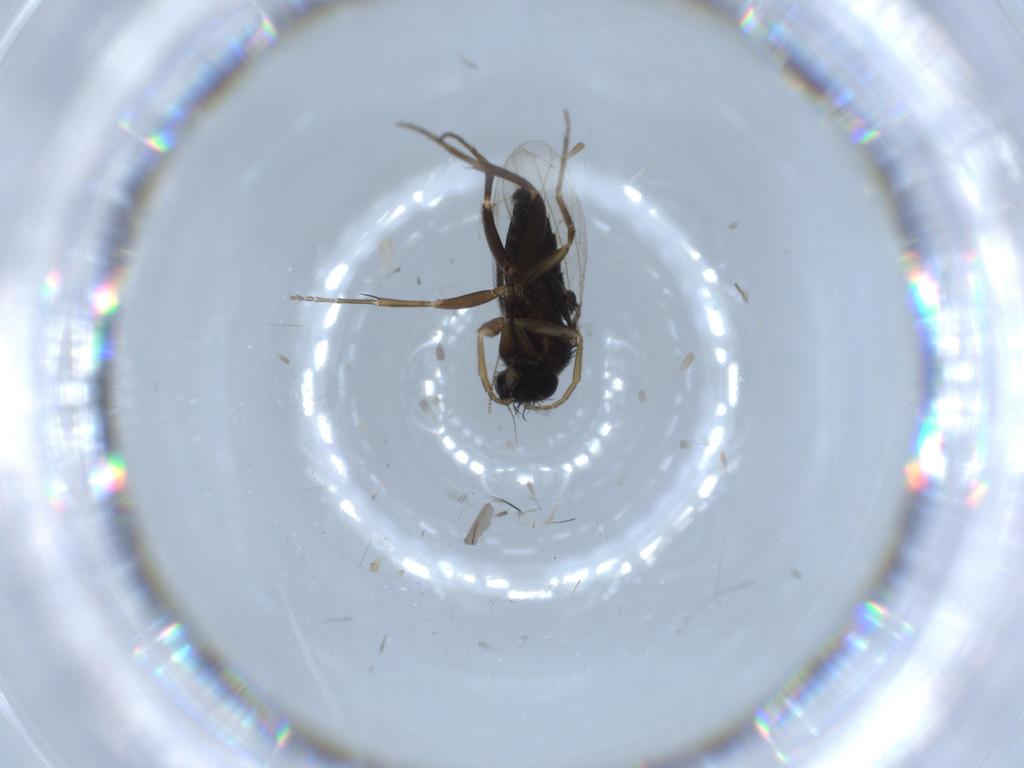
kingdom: Animalia
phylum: Arthropoda
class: Insecta
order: Diptera
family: Phoridae
